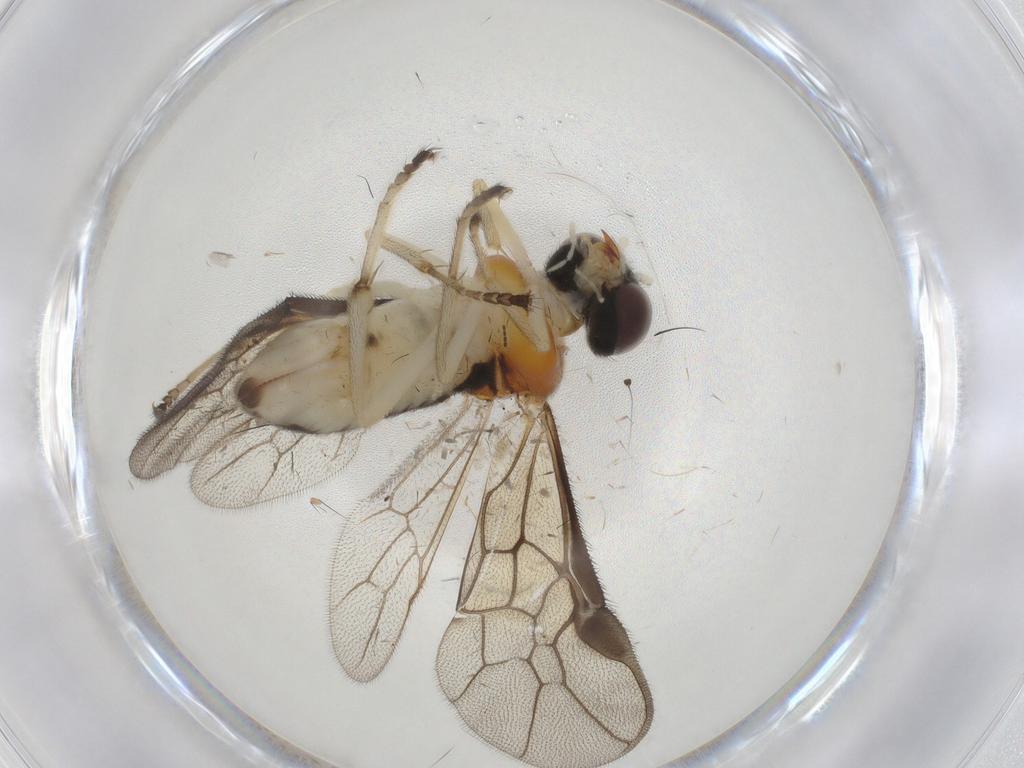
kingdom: Animalia
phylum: Arthropoda
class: Insecta
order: Hymenoptera
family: Pergidae
